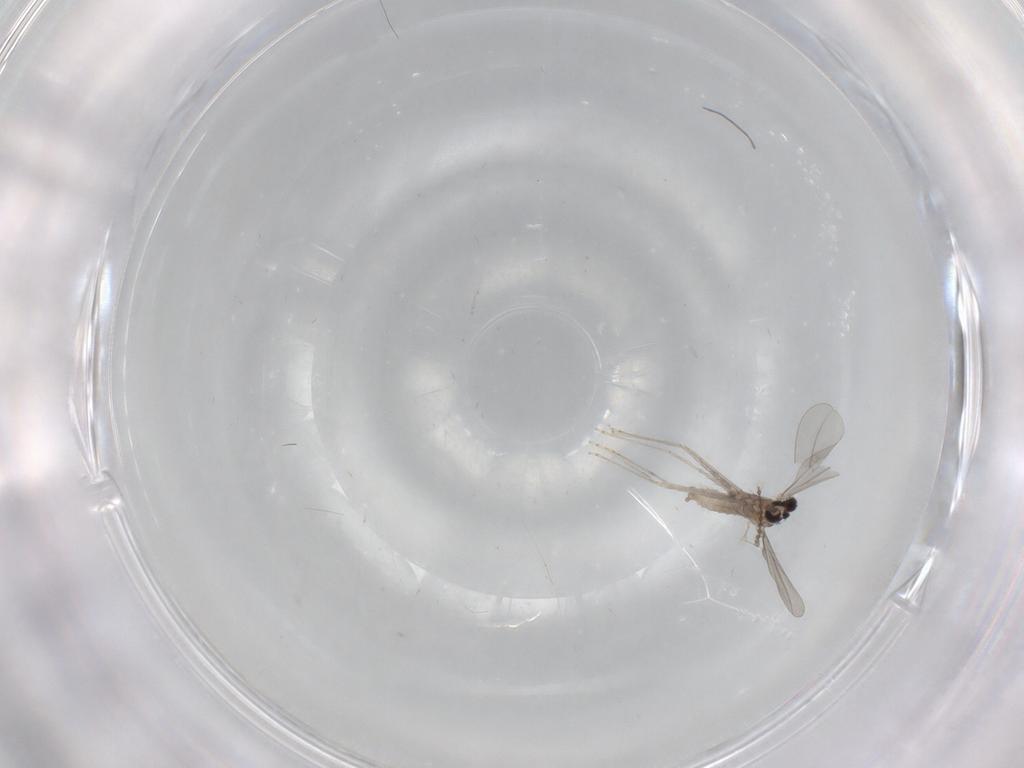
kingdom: Animalia
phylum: Arthropoda
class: Insecta
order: Diptera
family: Cecidomyiidae
